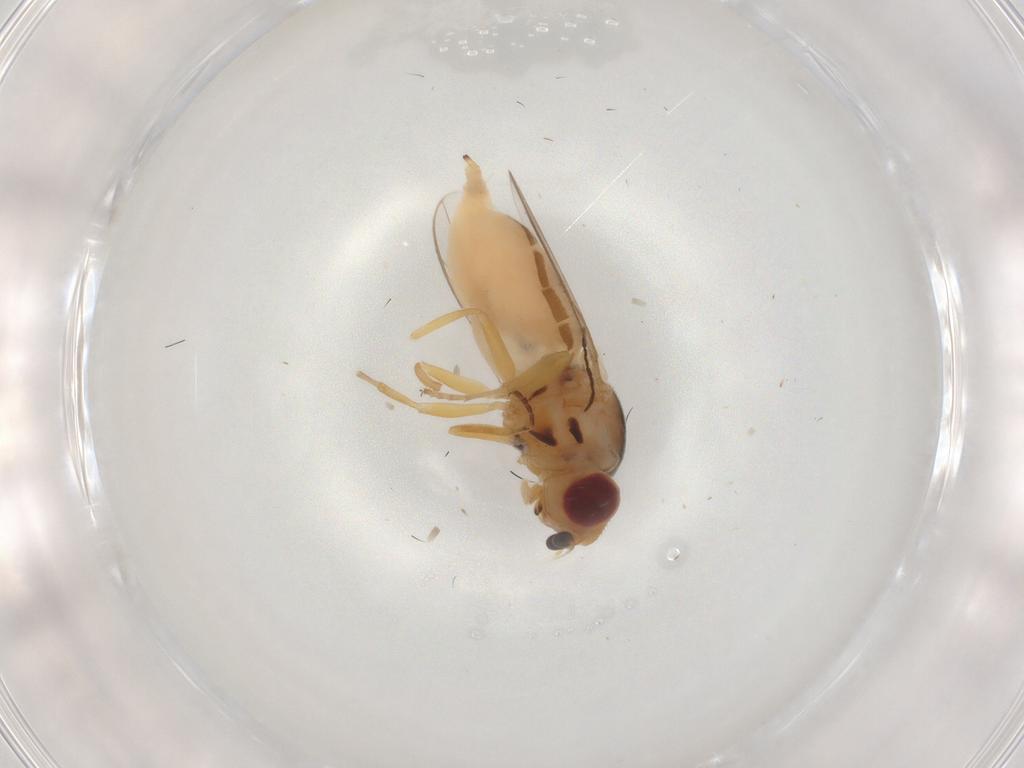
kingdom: Animalia
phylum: Arthropoda
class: Insecta
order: Diptera
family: Chloropidae
